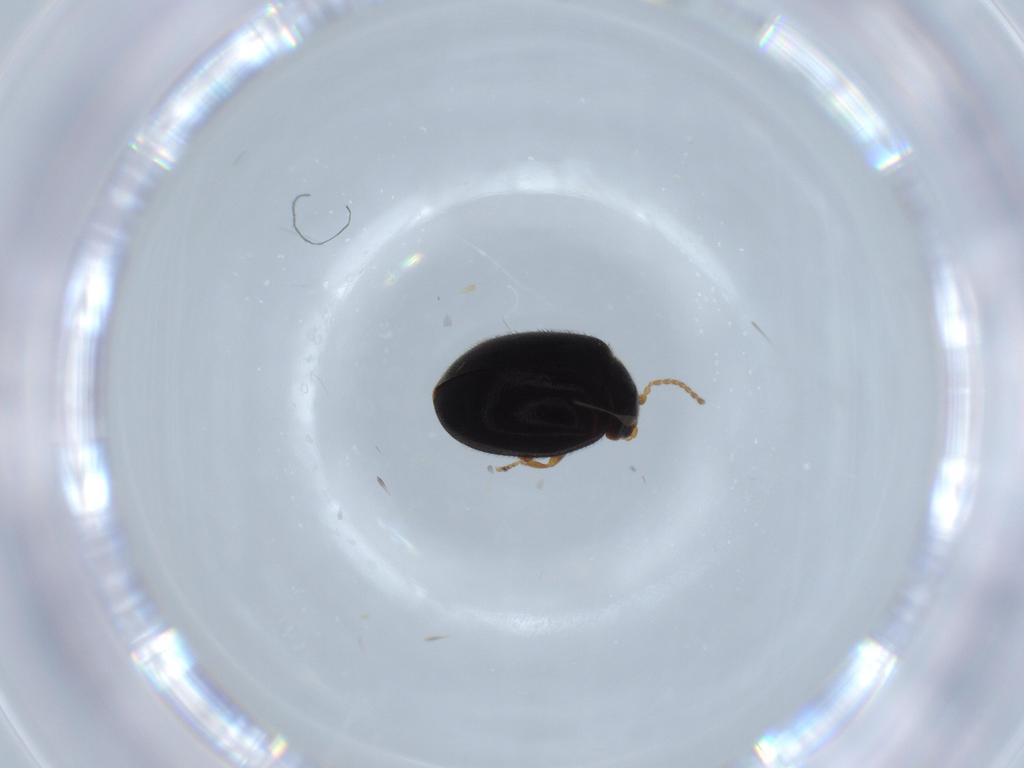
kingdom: Animalia
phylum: Arthropoda
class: Insecta
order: Coleoptera
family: Scirtidae
